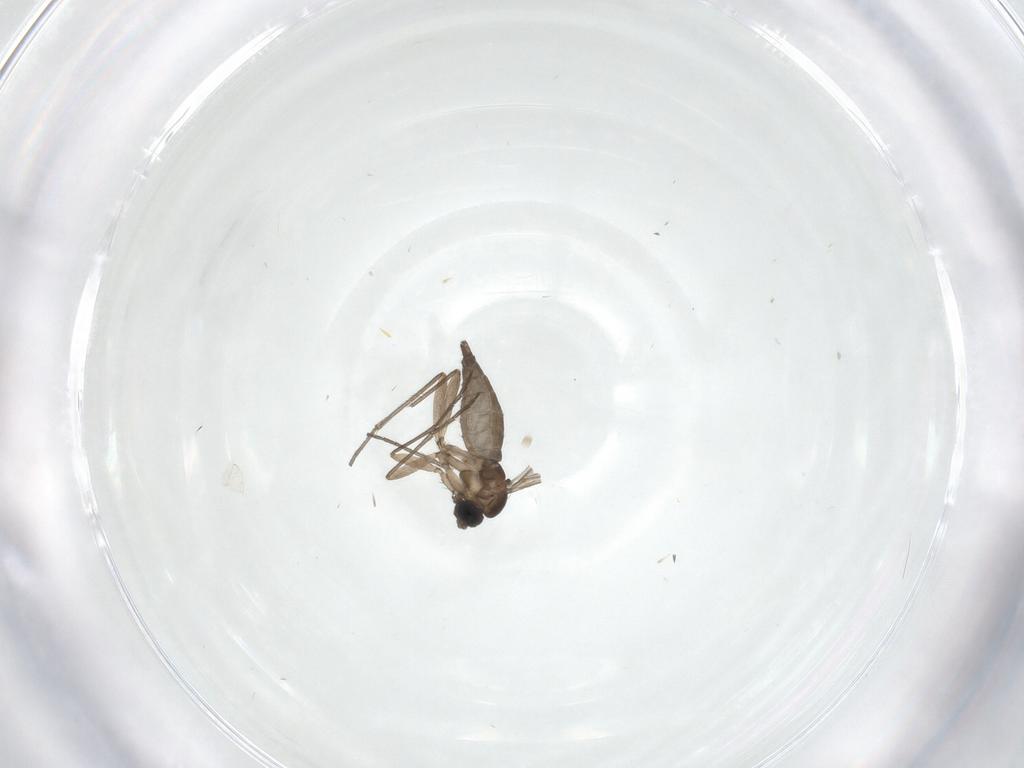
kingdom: Animalia
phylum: Arthropoda
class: Insecta
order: Diptera
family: Sciaridae
